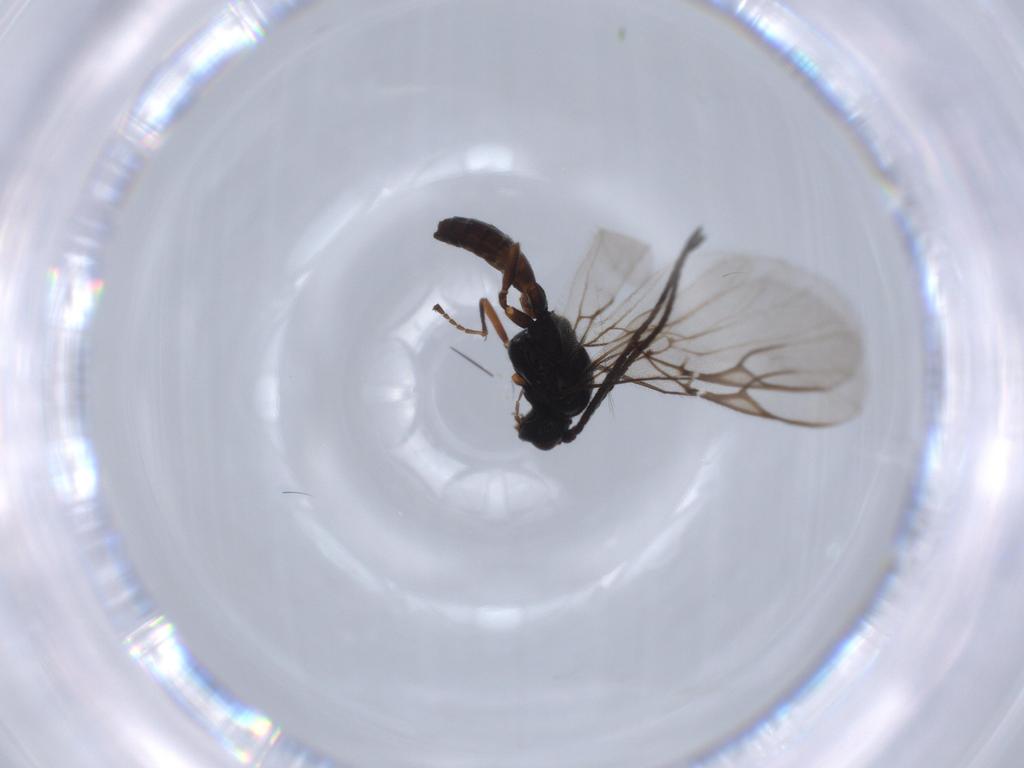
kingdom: Animalia
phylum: Arthropoda
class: Insecta
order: Hymenoptera
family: Braconidae
